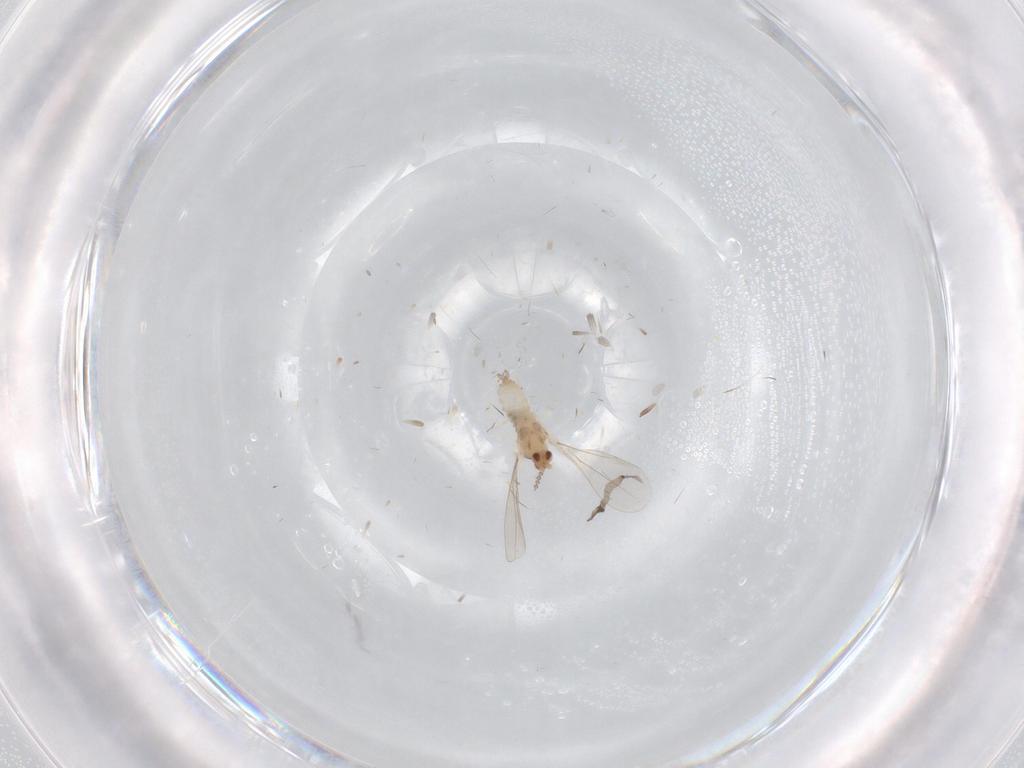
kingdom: Animalia
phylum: Arthropoda
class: Insecta
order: Diptera
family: Cecidomyiidae
